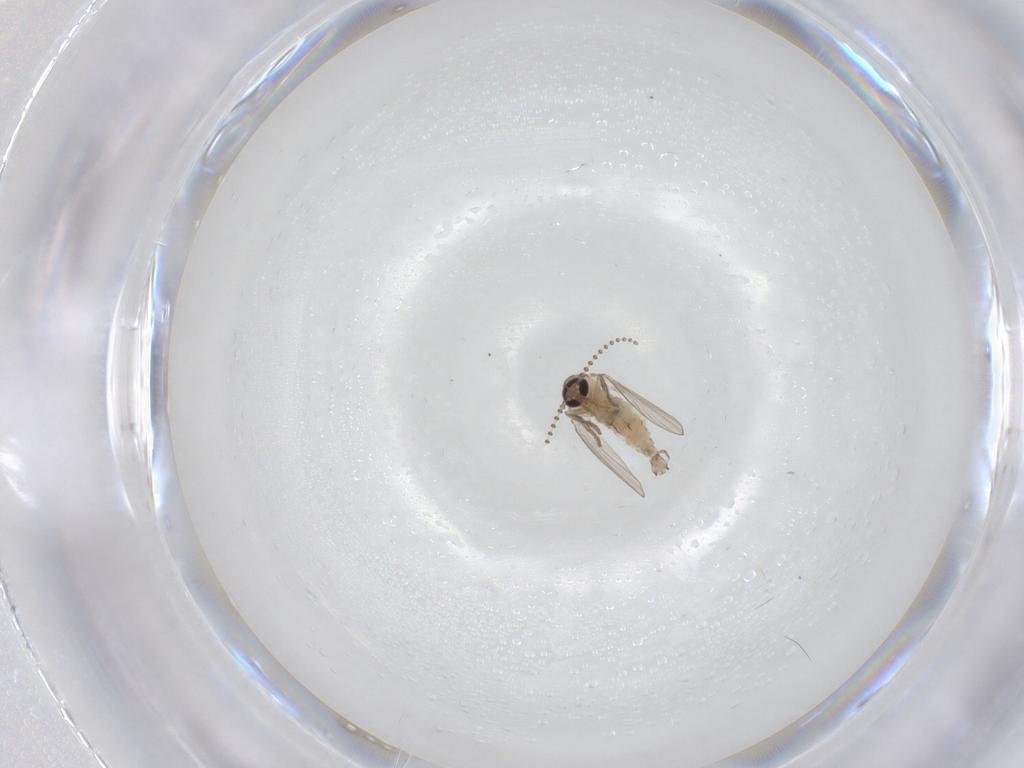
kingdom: Animalia
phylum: Arthropoda
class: Insecta
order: Diptera
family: Psychodidae
